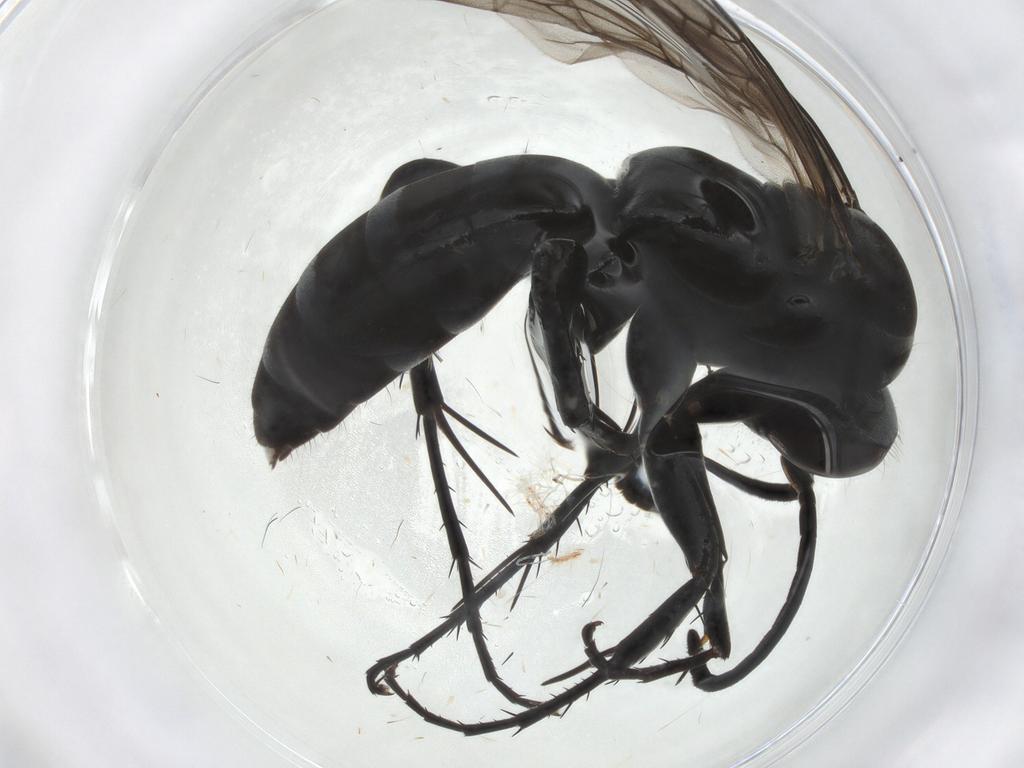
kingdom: Animalia
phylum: Arthropoda
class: Insecta
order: Hymenoptera
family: Pompilidae
